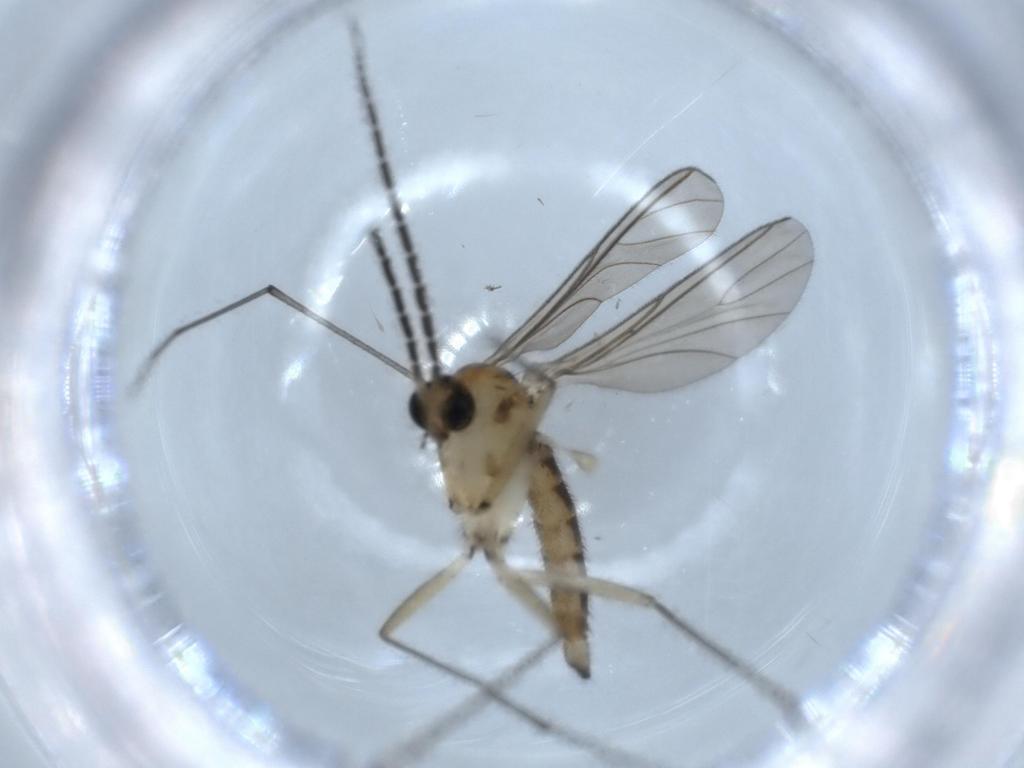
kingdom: Animalia
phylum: Arthropoda
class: Insecta
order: Diptera
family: Sciaridae
